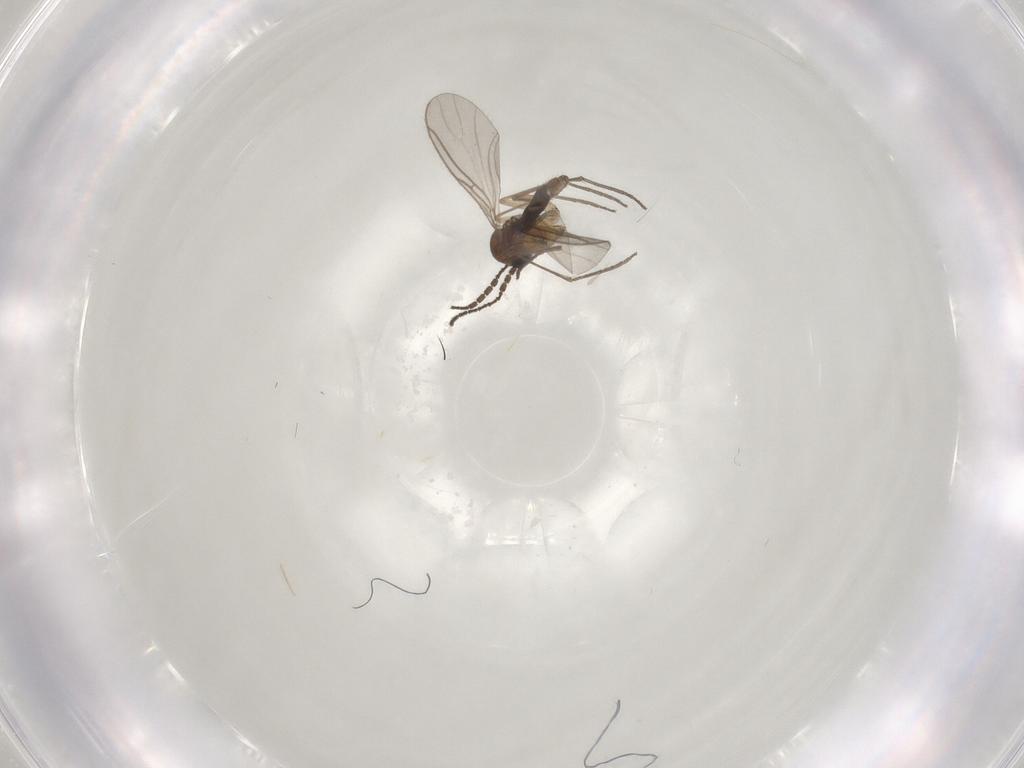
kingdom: Animalia
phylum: Arthropoda
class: Insecta
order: Diptera
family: Sciaridae
